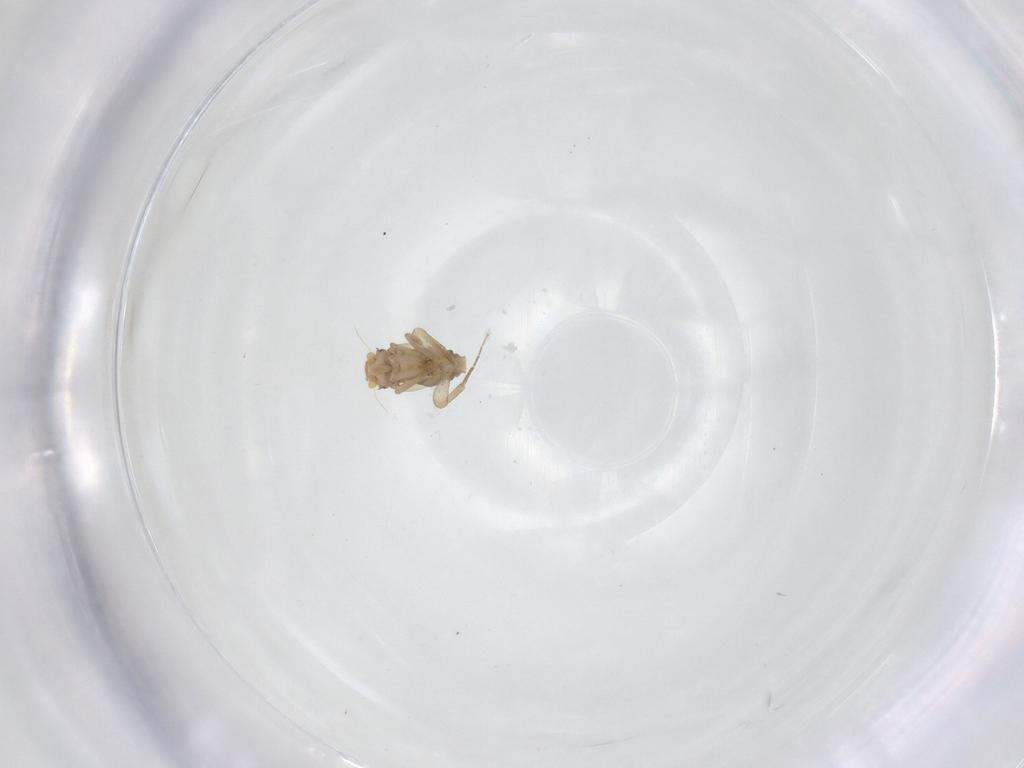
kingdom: Animalia
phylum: Arthropoda
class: Insecta
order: Diptera
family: Phoridae
